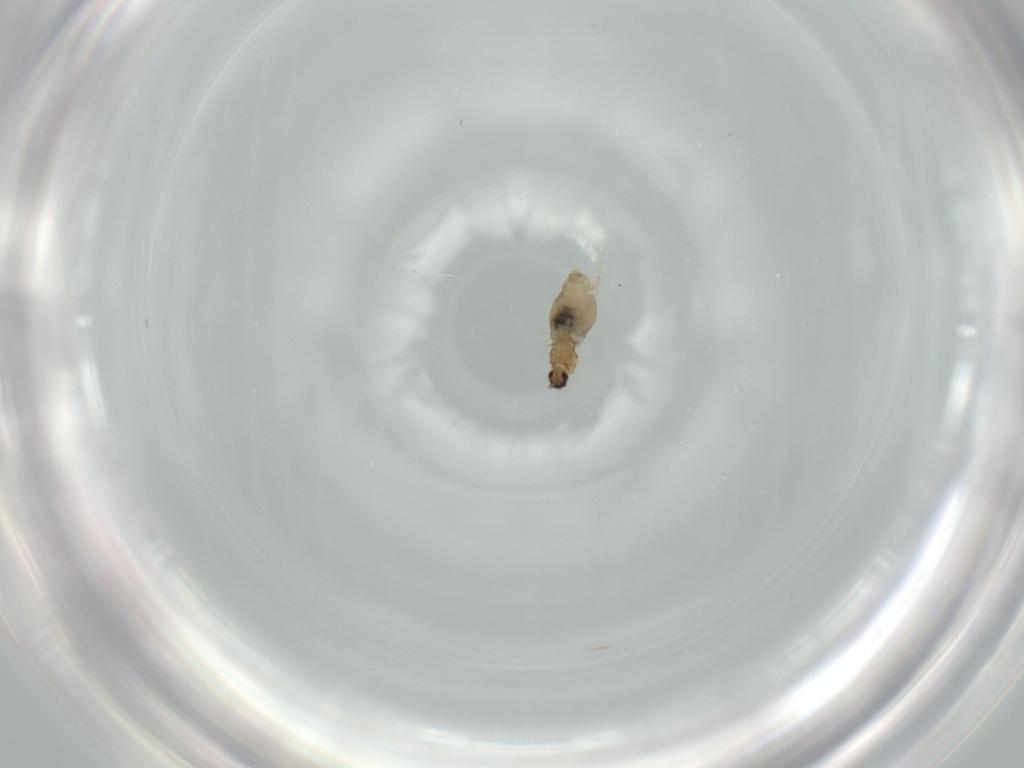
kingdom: Animalia
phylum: Arthropoda
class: Insecta
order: Diptera
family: Cecidomyiidae
